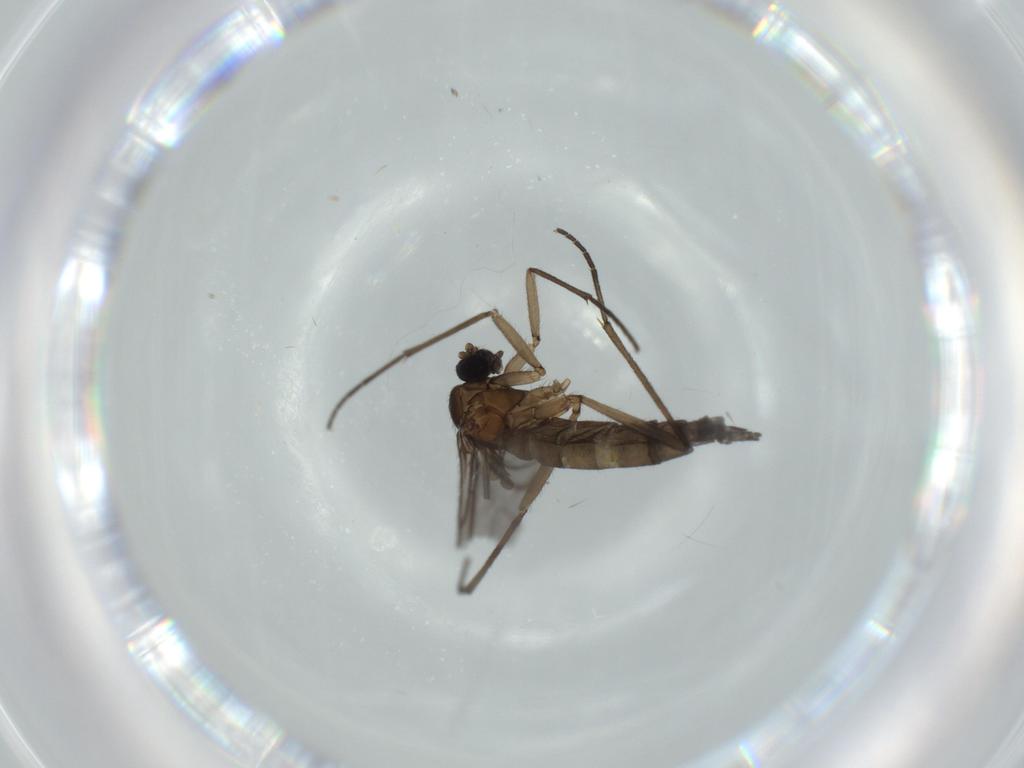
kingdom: Animalia
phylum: Arthropoda
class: Insecta
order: Diptera
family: Sciaridae
